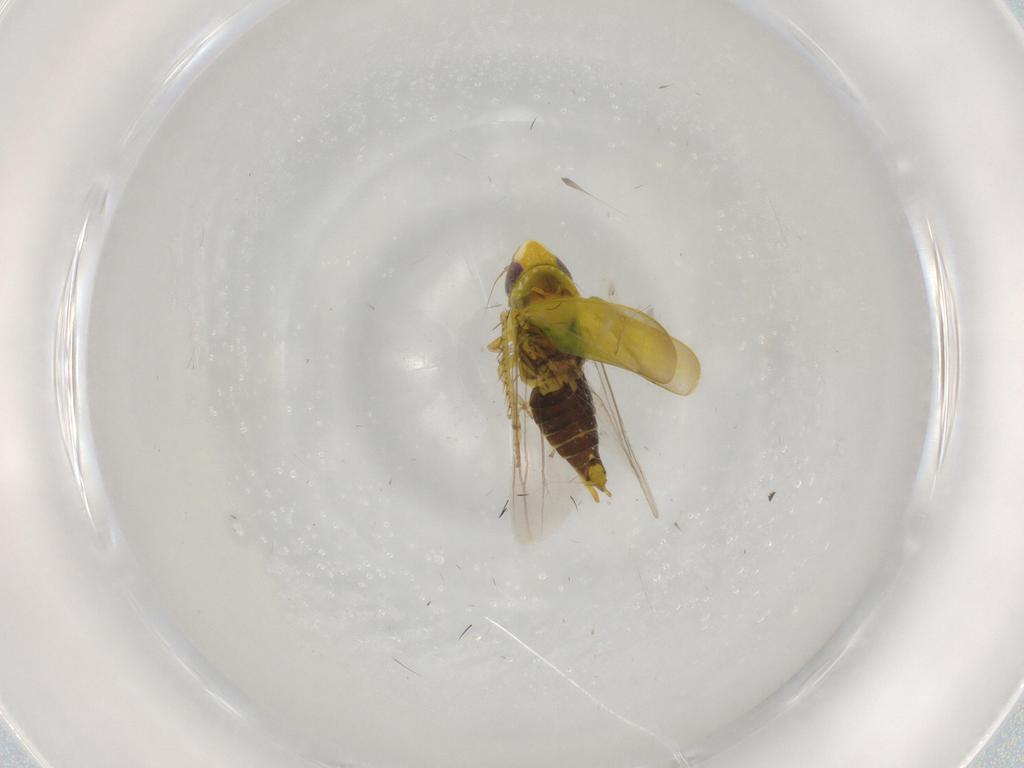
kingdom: Animalia
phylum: Arthropoda
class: Insecta
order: Hemiptera
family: Cicadellidae
